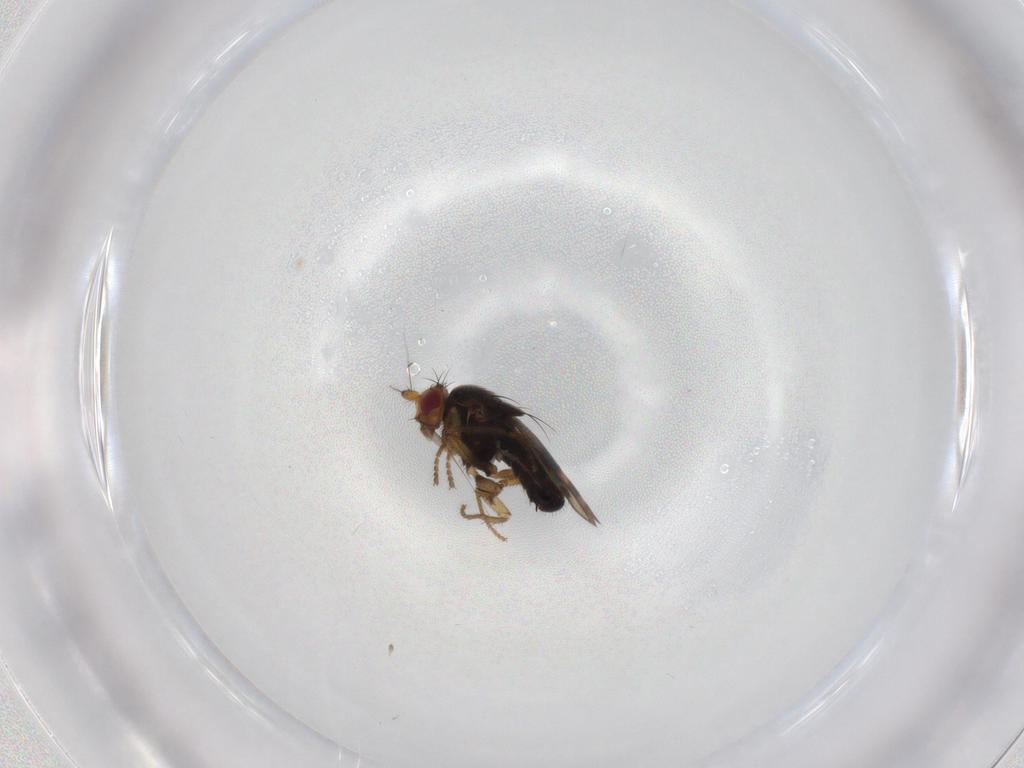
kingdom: Animalia
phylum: Arthropoda
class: Insecta
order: Diptera
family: Sphaeroceridae
